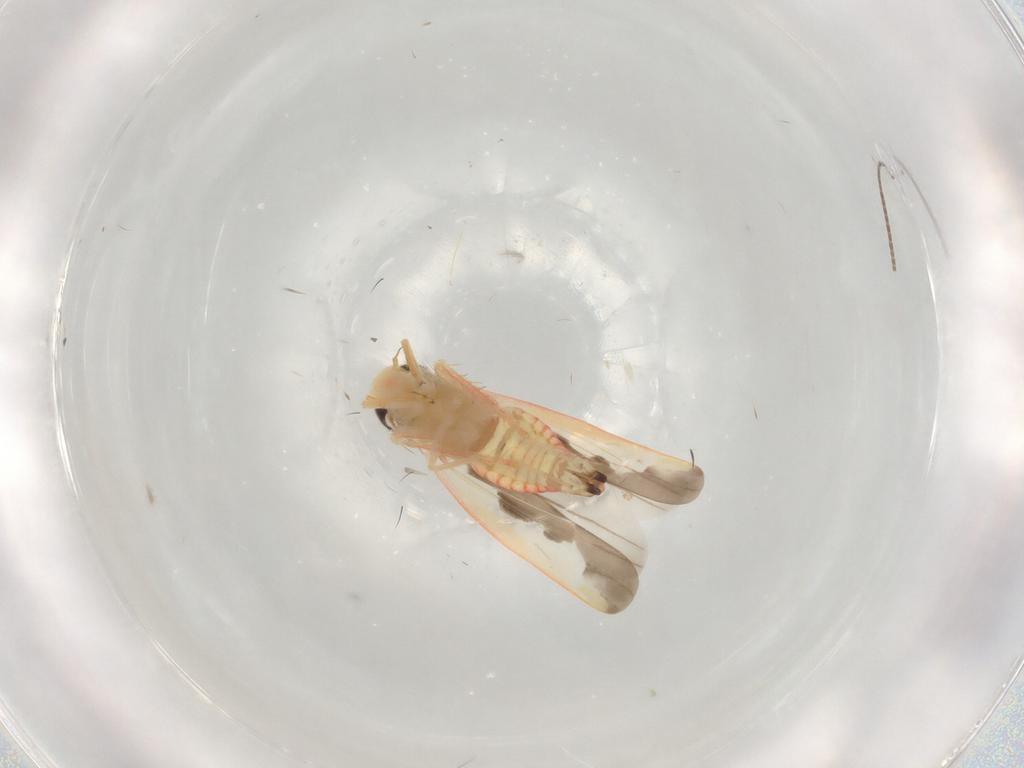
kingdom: Animalia
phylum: Arthropoda
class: Insecta
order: Hemiptera
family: Cicadellidae
